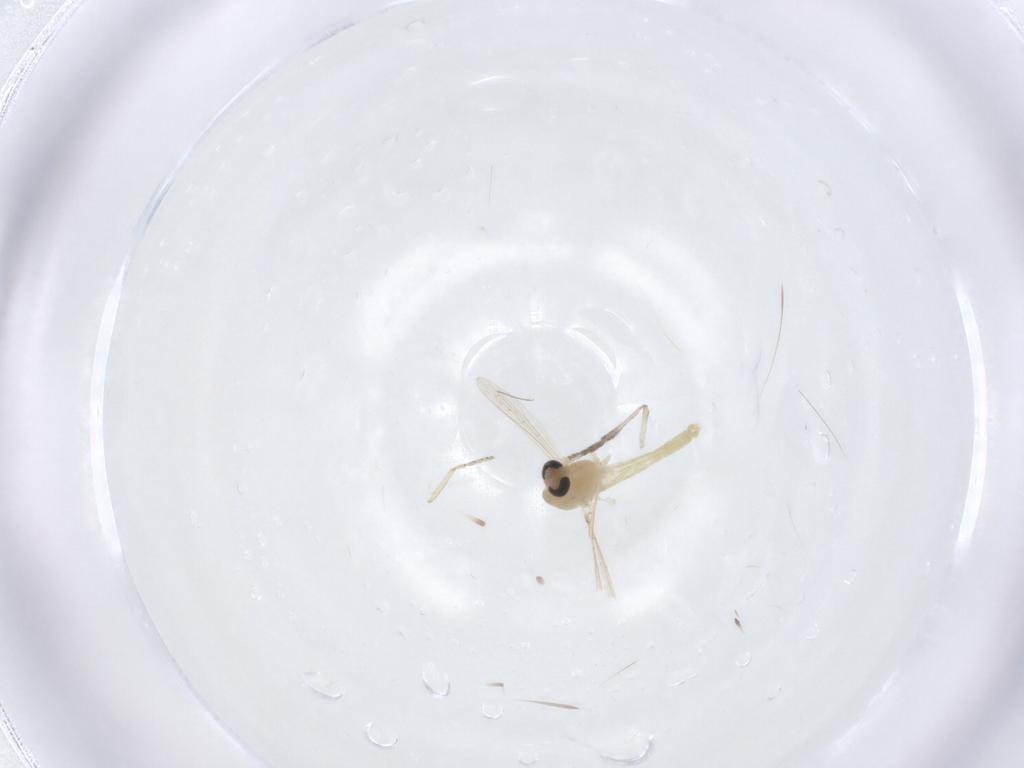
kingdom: Animalia
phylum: Arthropoda
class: Insecta
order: Diptera
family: Chironomidae
